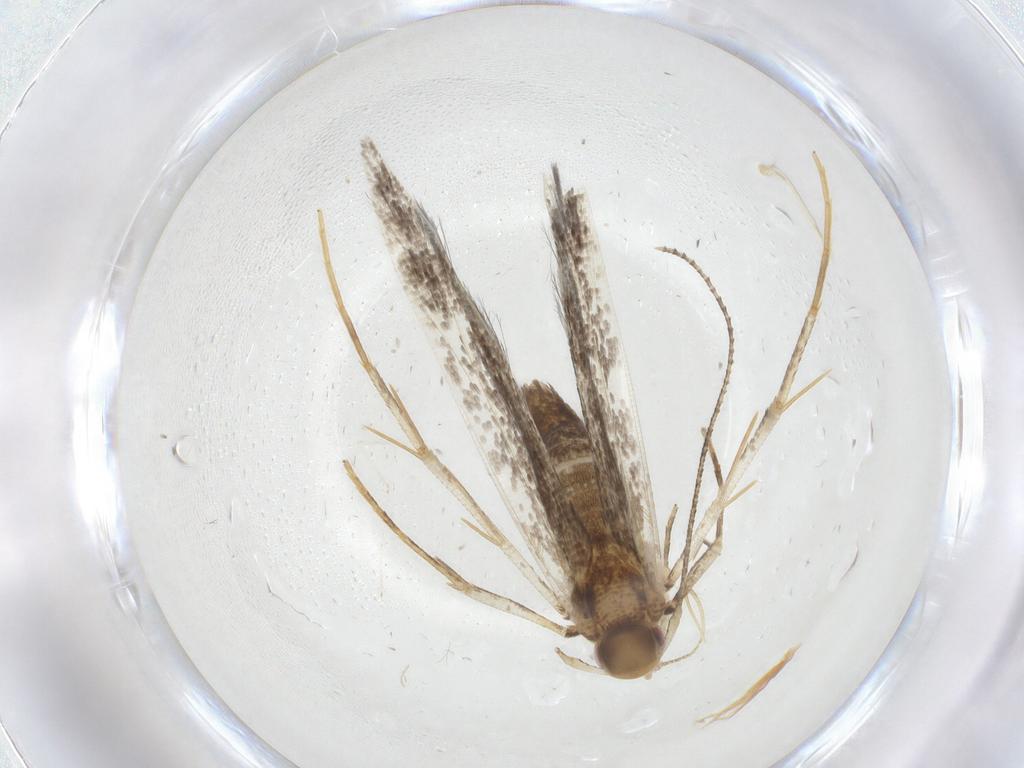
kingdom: Animalia
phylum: Arthropoda
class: Insecta
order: Lepidoptera
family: Cosmopterigidae
